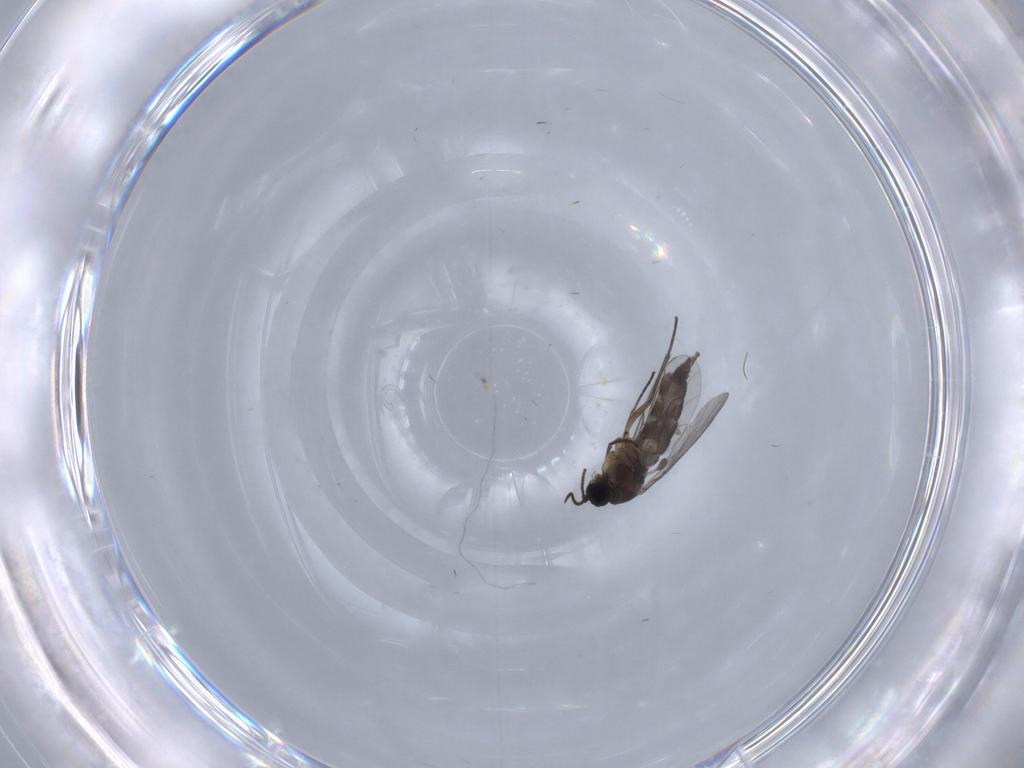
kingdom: Animalia
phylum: Arthropoda
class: Insecta
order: Diptera
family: Sciaridae
